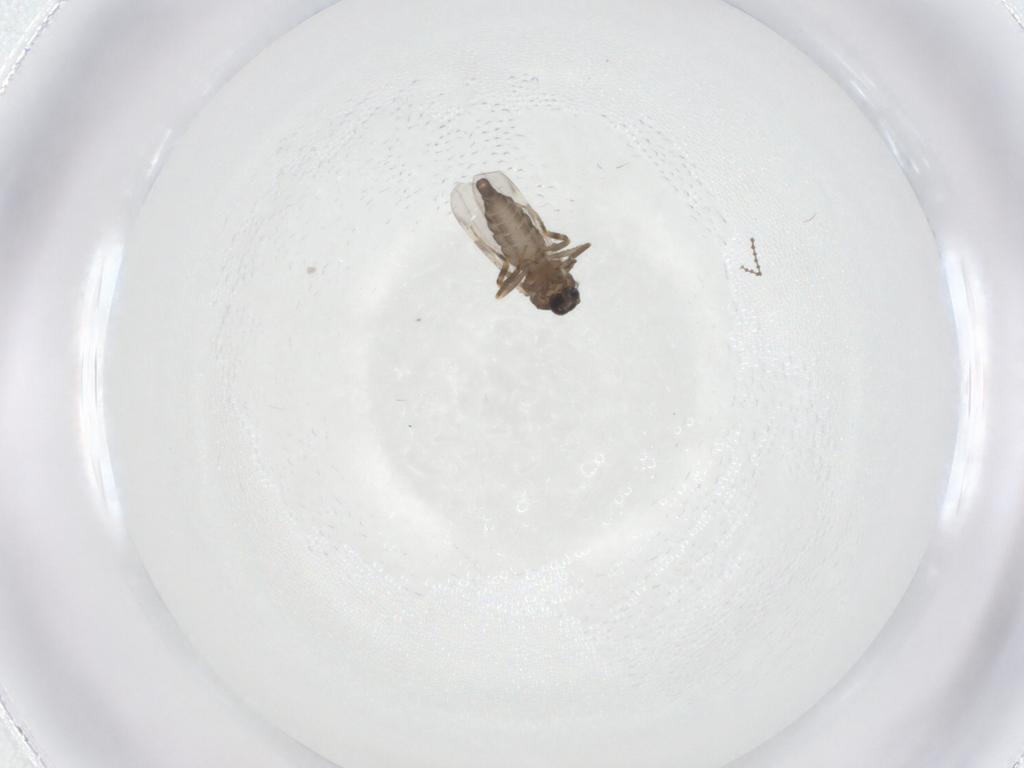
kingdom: Animalia
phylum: Arthropoda
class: Insecta
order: Diptera
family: Ceratopogonidae
